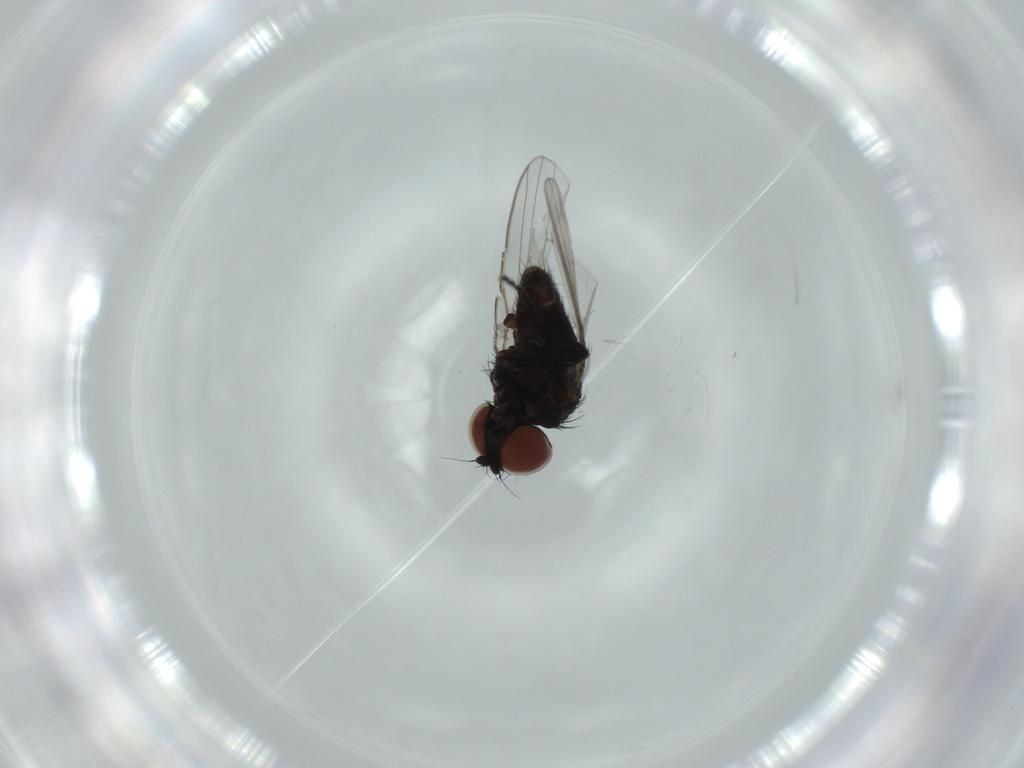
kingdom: Animalia
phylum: Arthropoda
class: Insecta
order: Diptera
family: Milichiidae
